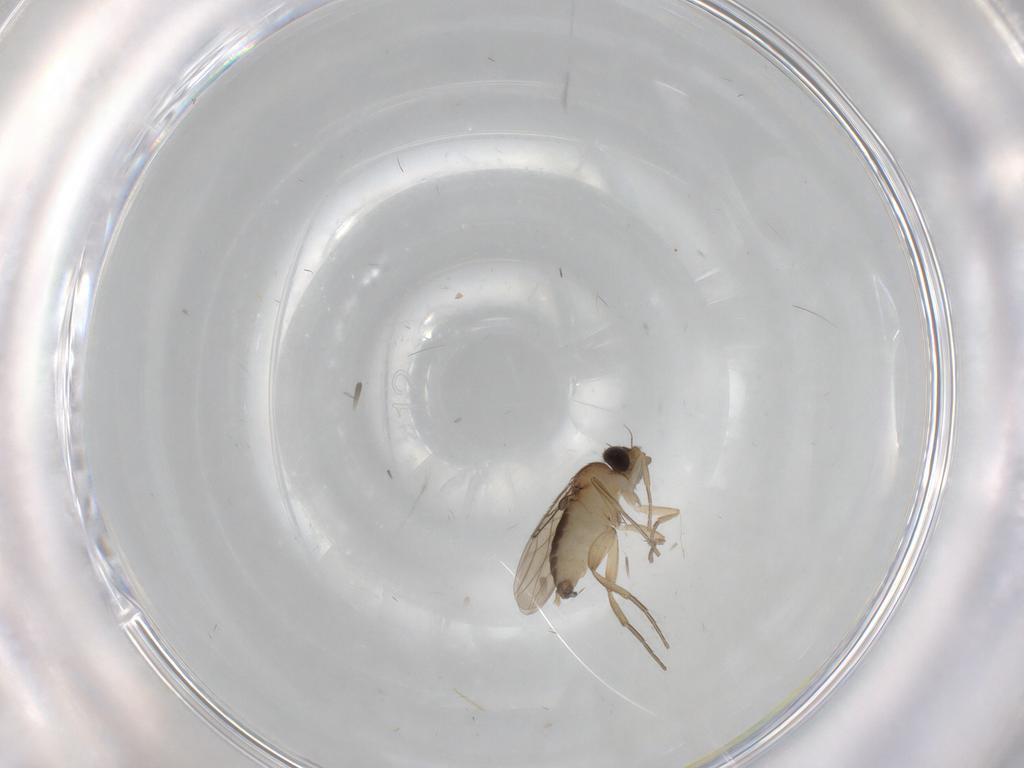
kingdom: Animalia
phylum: Arthropoda
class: Insecta
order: Diptera
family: Phoridae
